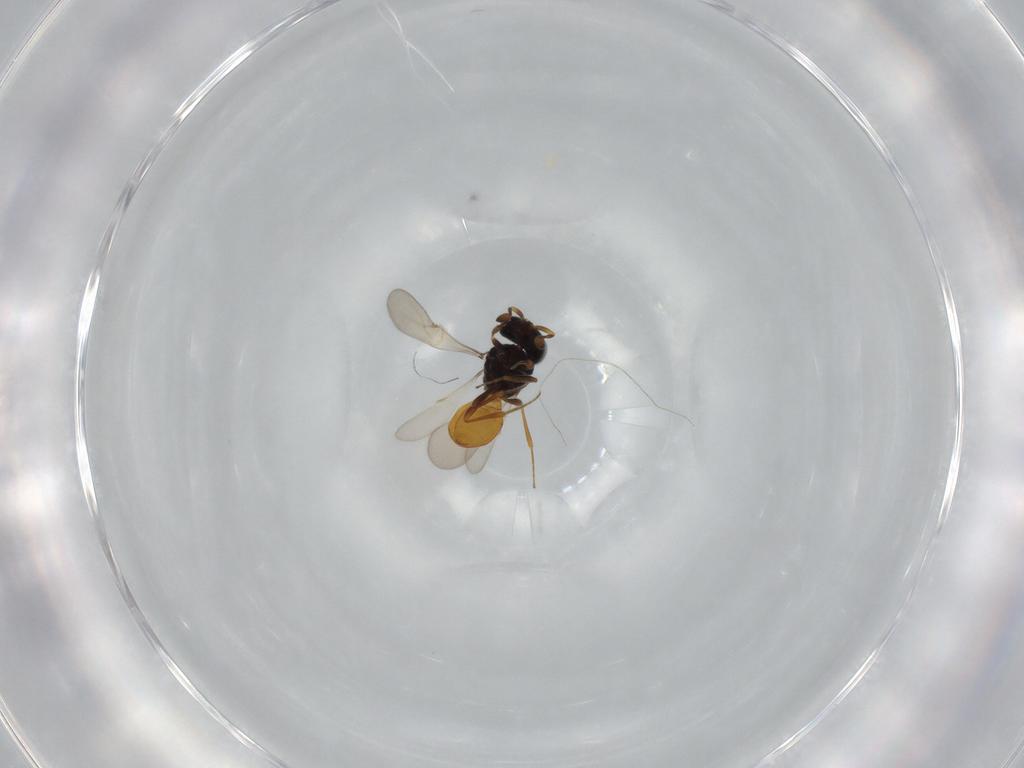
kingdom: Animalia
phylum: Arthropoda
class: Insecta
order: Hymenoptera
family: Scelionidae
